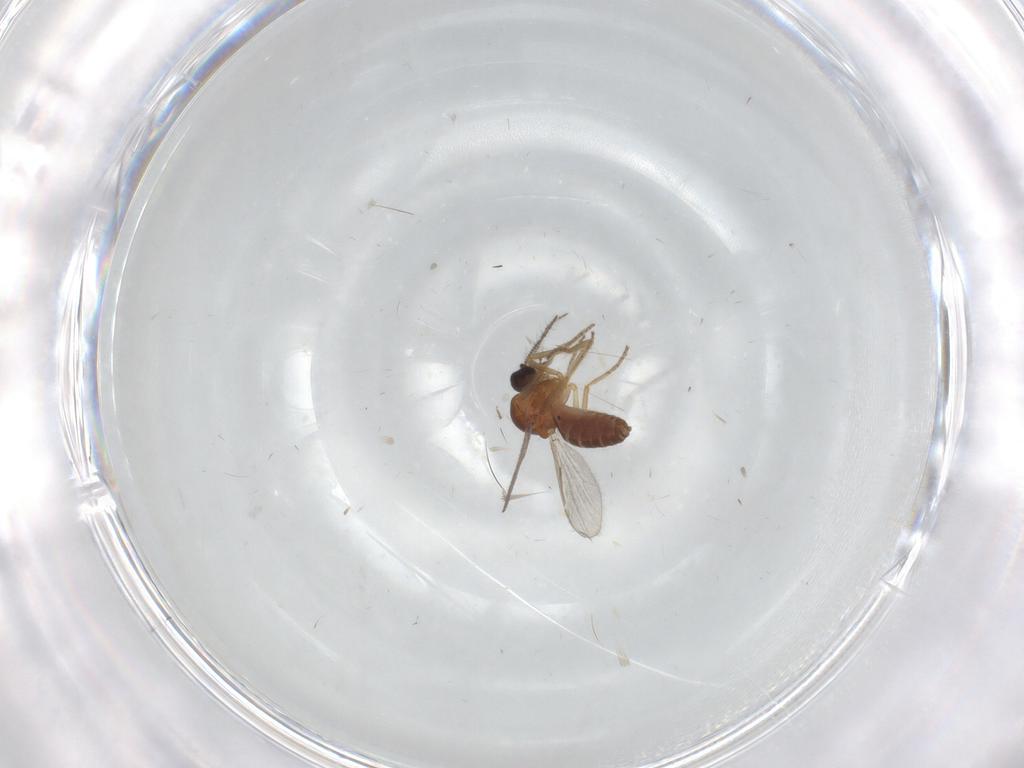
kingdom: Animalia
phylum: Arthropoda
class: Insecta
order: Diptera
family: Ceratopogonidae
